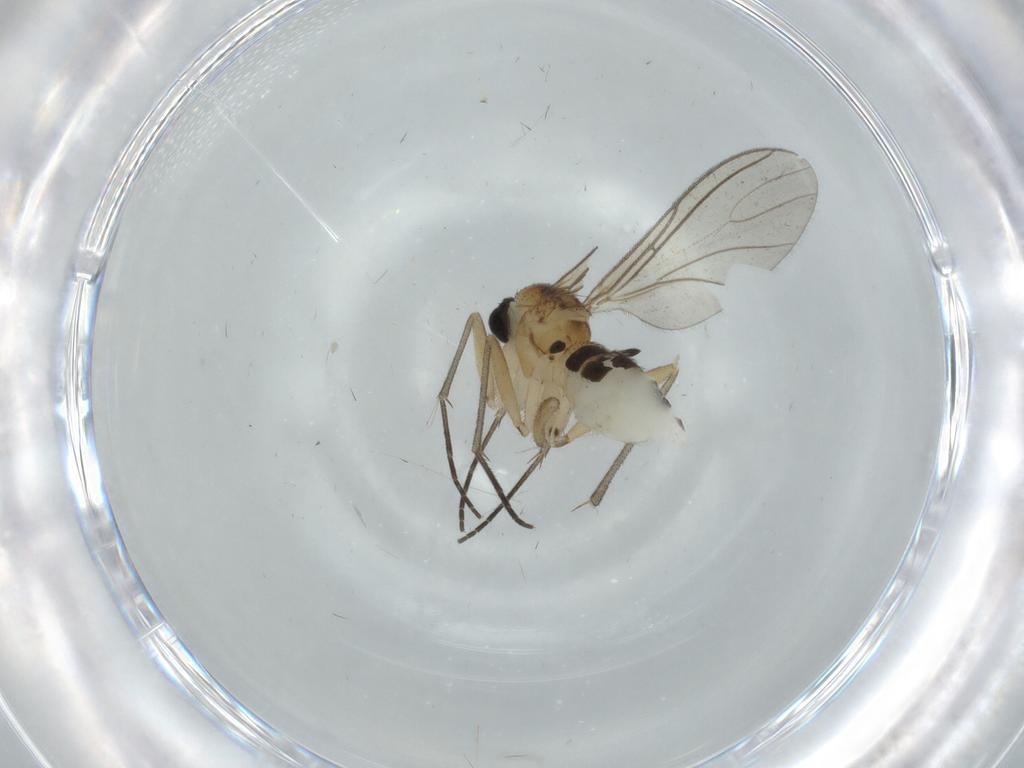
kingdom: Animalia
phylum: Arthropoda
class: Insecta
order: Diptera
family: Sciaridae
